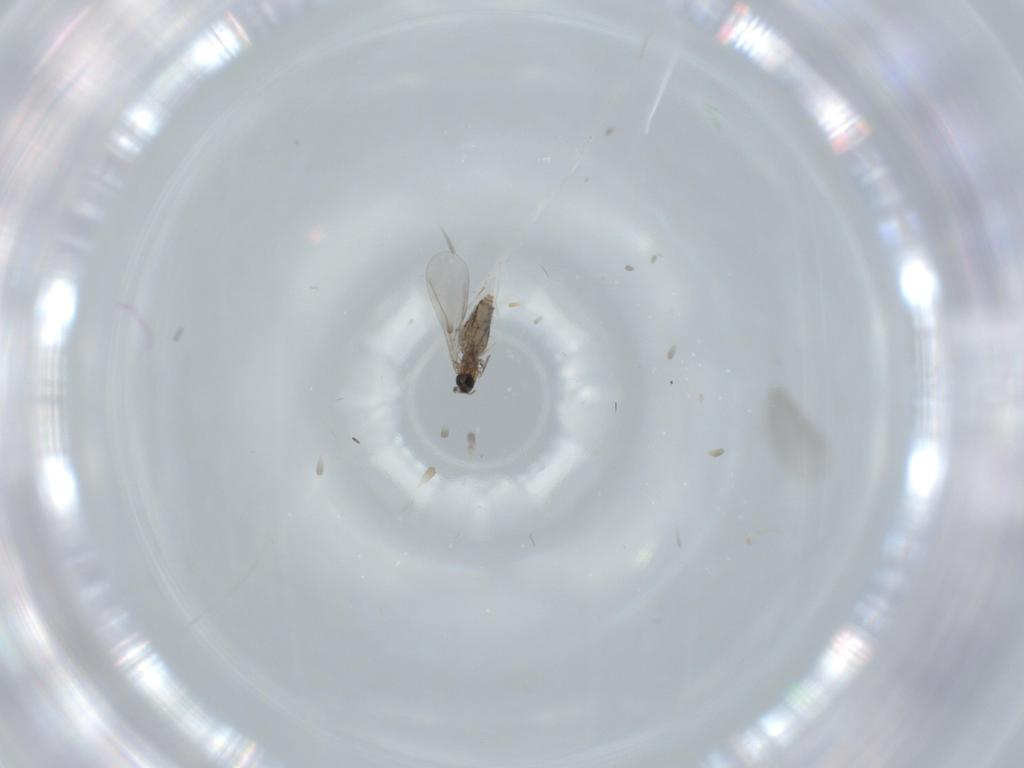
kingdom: Animalia
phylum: Arthropoda
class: Insecta
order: Diptera
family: Cecidomyiidae
